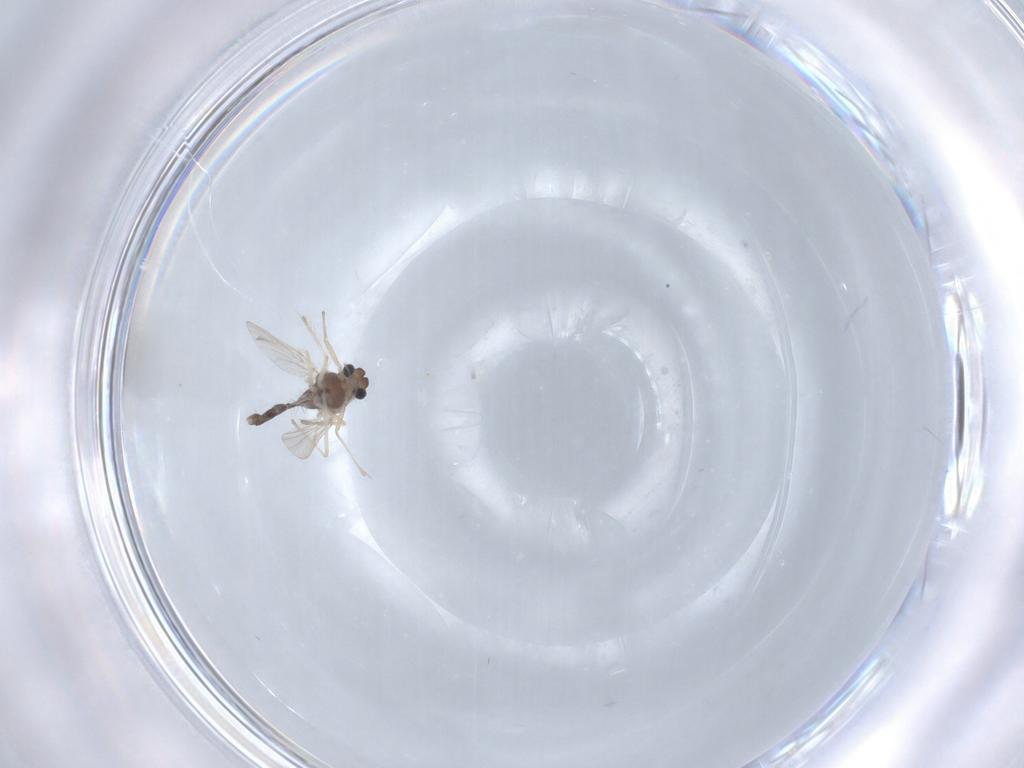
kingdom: Animalia
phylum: Arthropoda
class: Insecta
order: Diptera
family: Chironomidae
